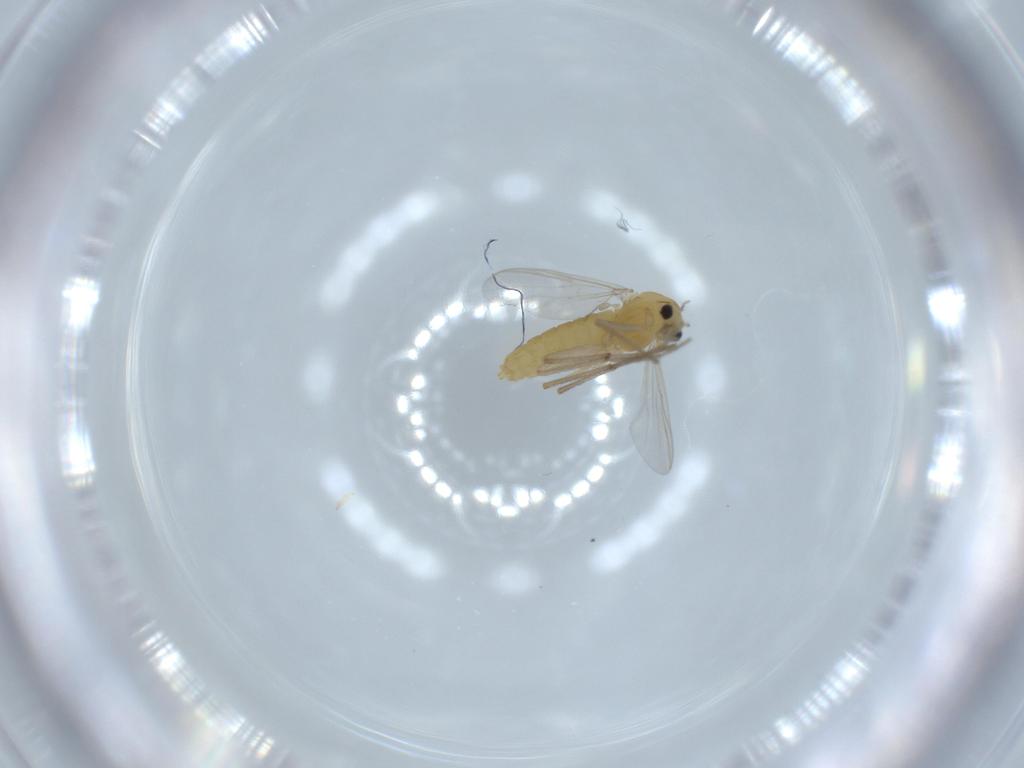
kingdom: Animalia
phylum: Arthropoda
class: Insecta
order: Diptera
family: Chironomidae
